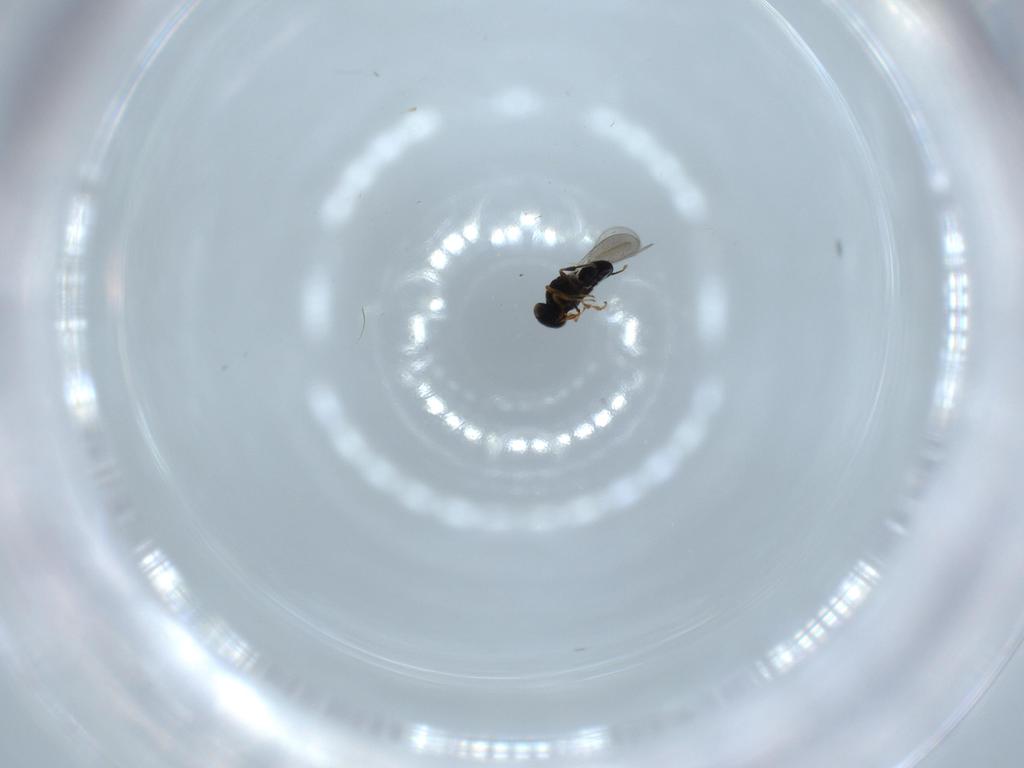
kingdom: Animalia
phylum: Arthropoda
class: Insecta
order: Hymenoptera
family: Platygastridae
